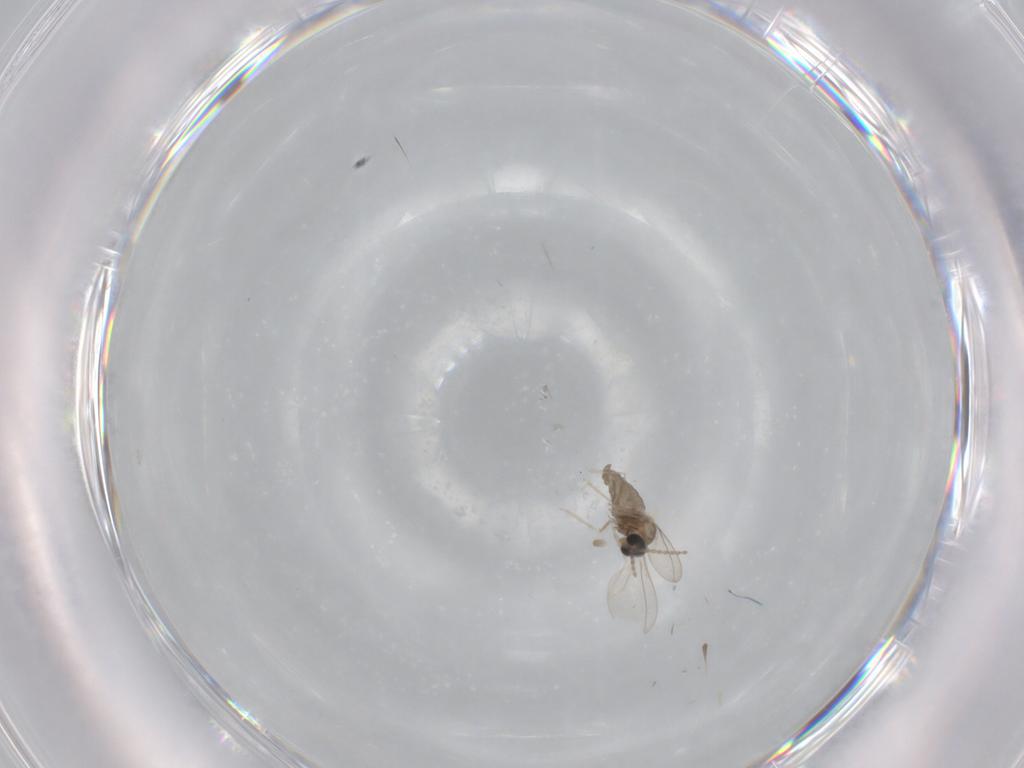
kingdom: Animalia
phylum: Arthropoda
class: Insecta
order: Diptera
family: Cecidomyiidae
